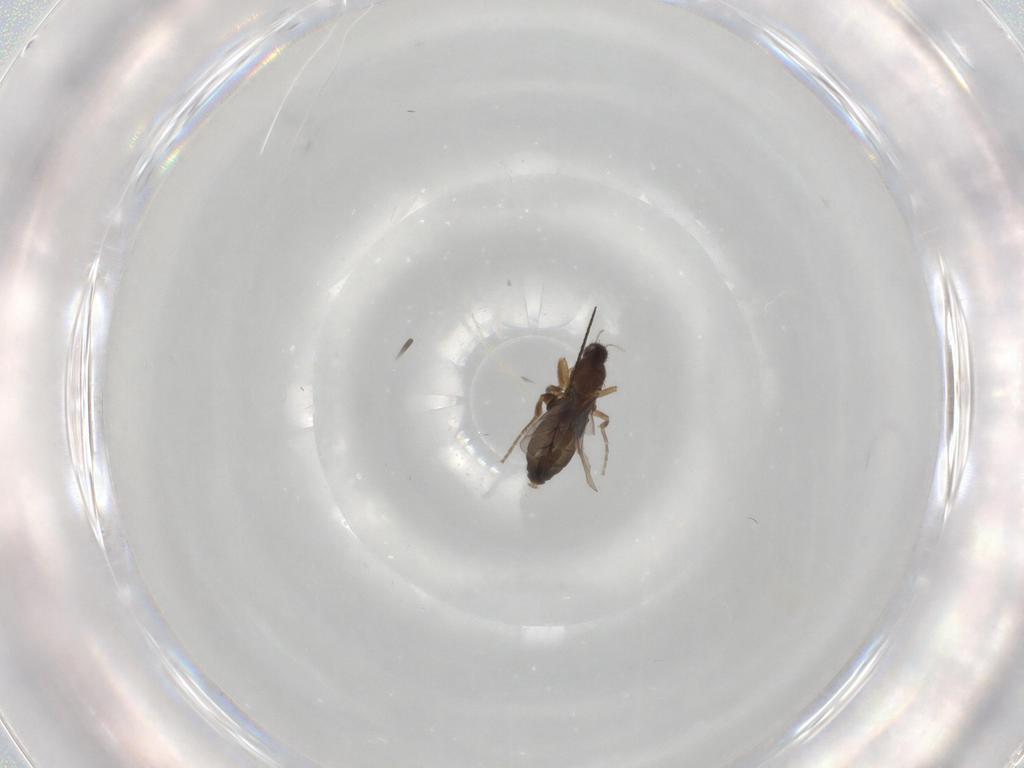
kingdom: Animalia
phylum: Arthropoda
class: Insecta
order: Diptera
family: Phoridae
